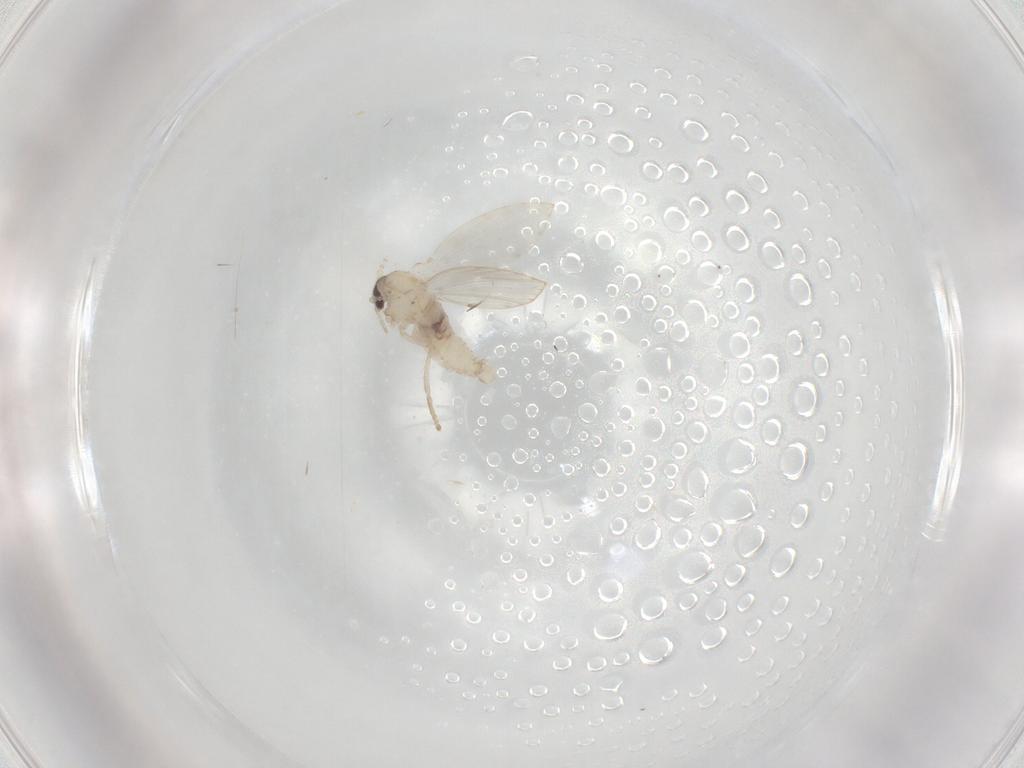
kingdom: Animalia
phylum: Arthropoda
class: Insecta
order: Diptera
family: Psychodidae
